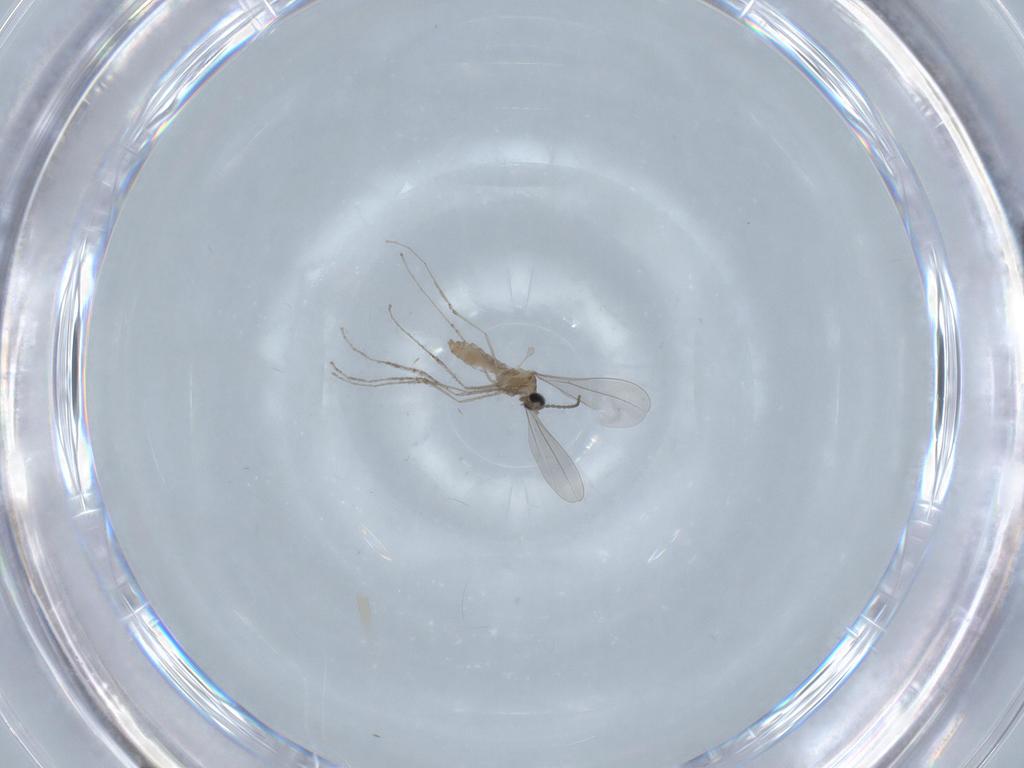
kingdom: Animalia
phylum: Arthropoda
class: Insecta
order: Diptera
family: Cecidomyiidae
